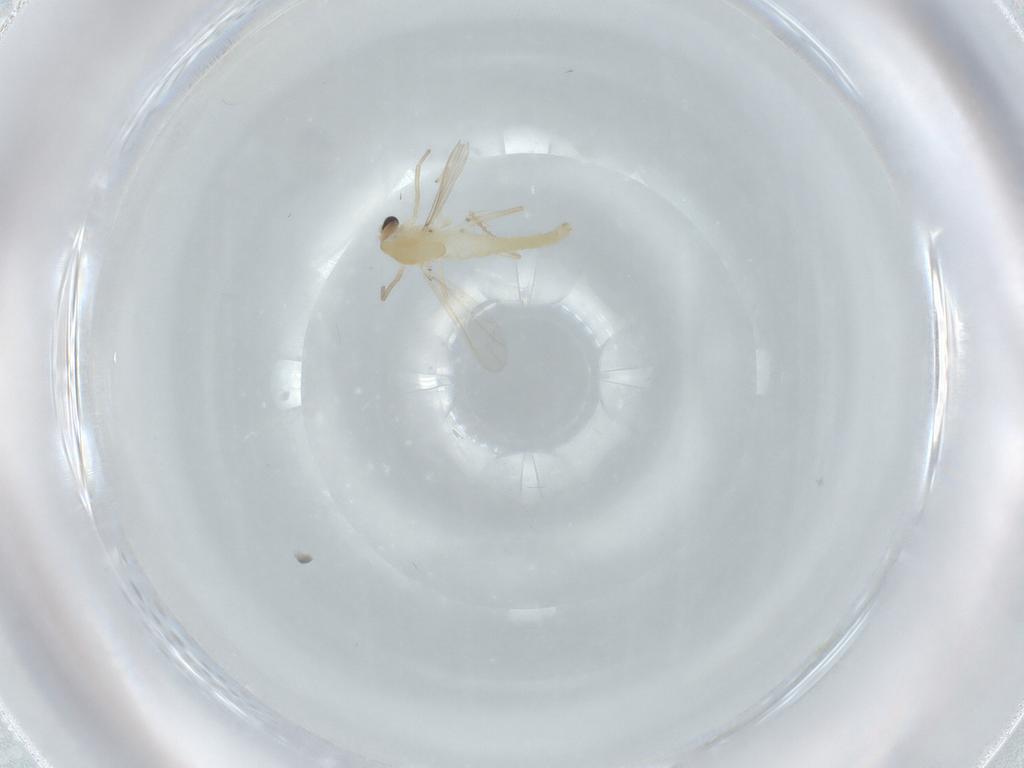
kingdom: Animalia
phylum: Arthropoda
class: Insecta
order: Diptera
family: Chironomidae
